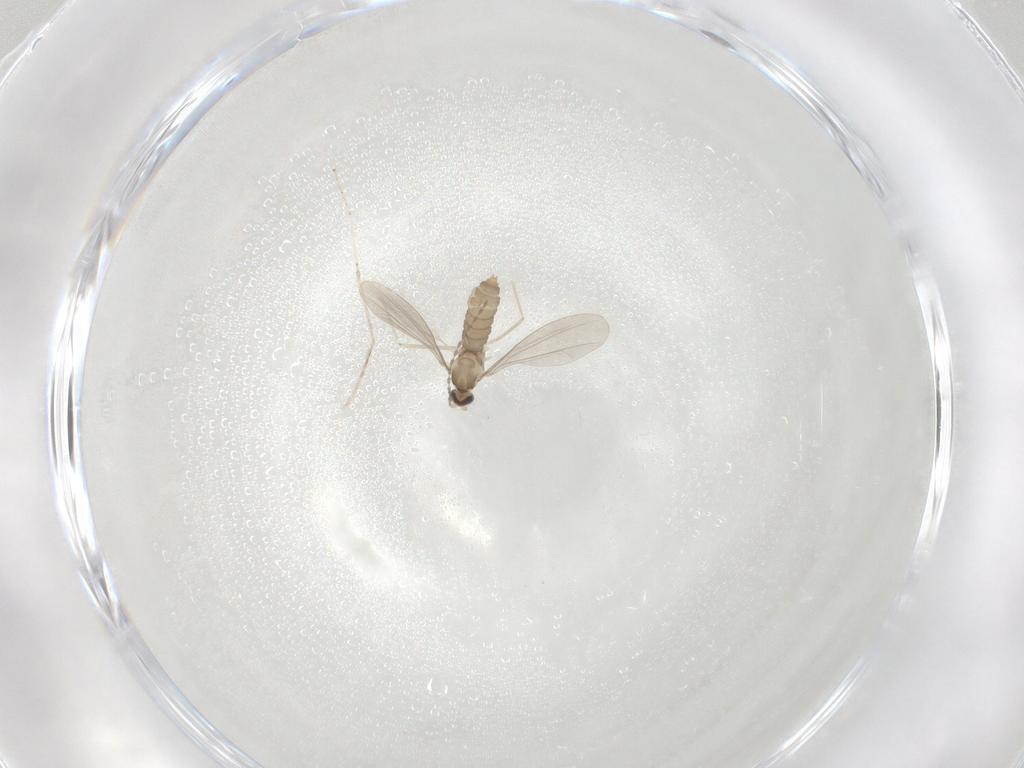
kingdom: Animalia
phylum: Arthropoda
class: Insecta
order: Diptera
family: Cecidomyiidae
